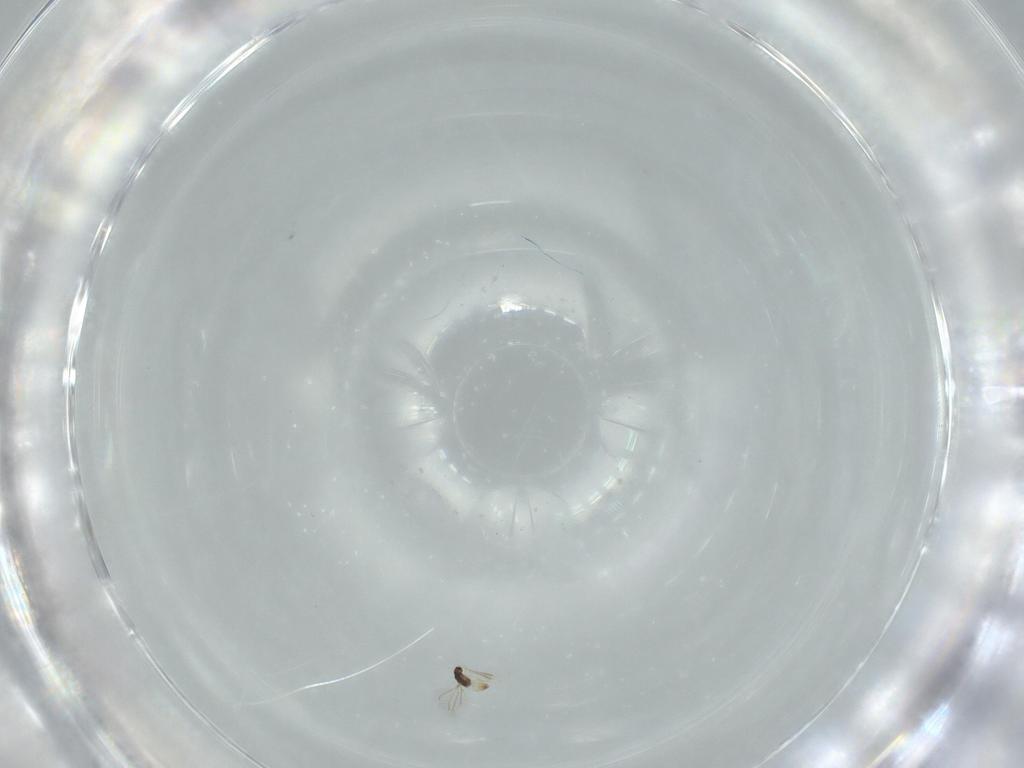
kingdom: Animalia
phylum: Arthropoda
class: Insecta
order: Hymenoptera
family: Mymaridae
